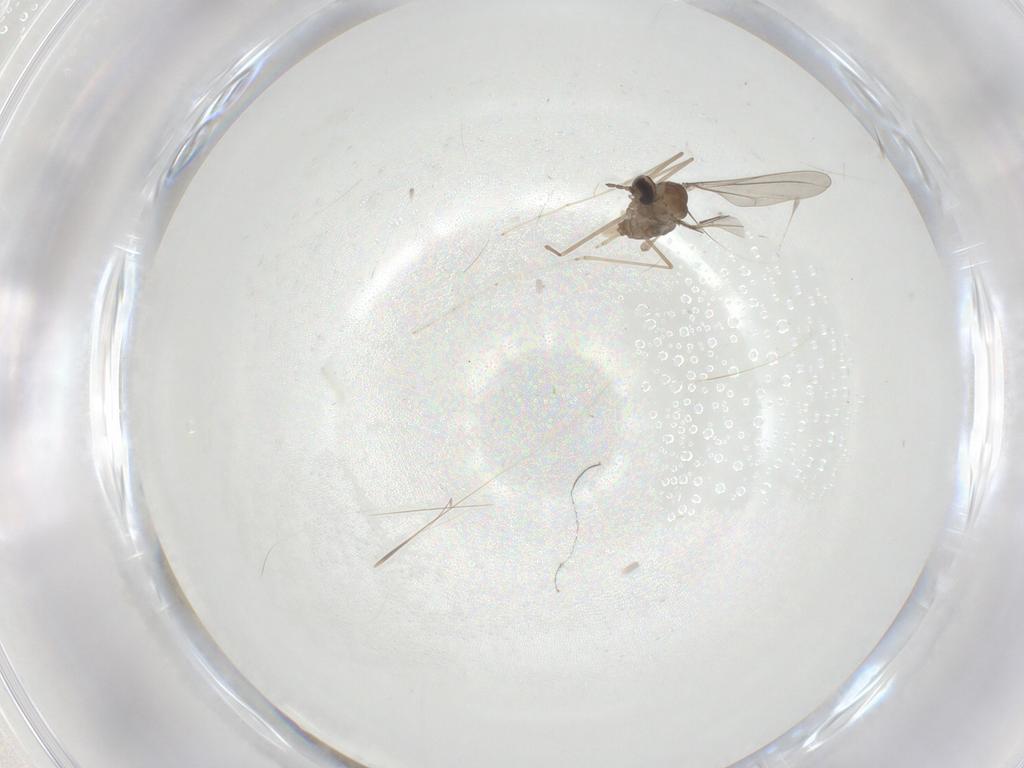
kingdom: Animalia
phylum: Arthropoda
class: Insecta
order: Diptera
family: Cecidomyiidae
